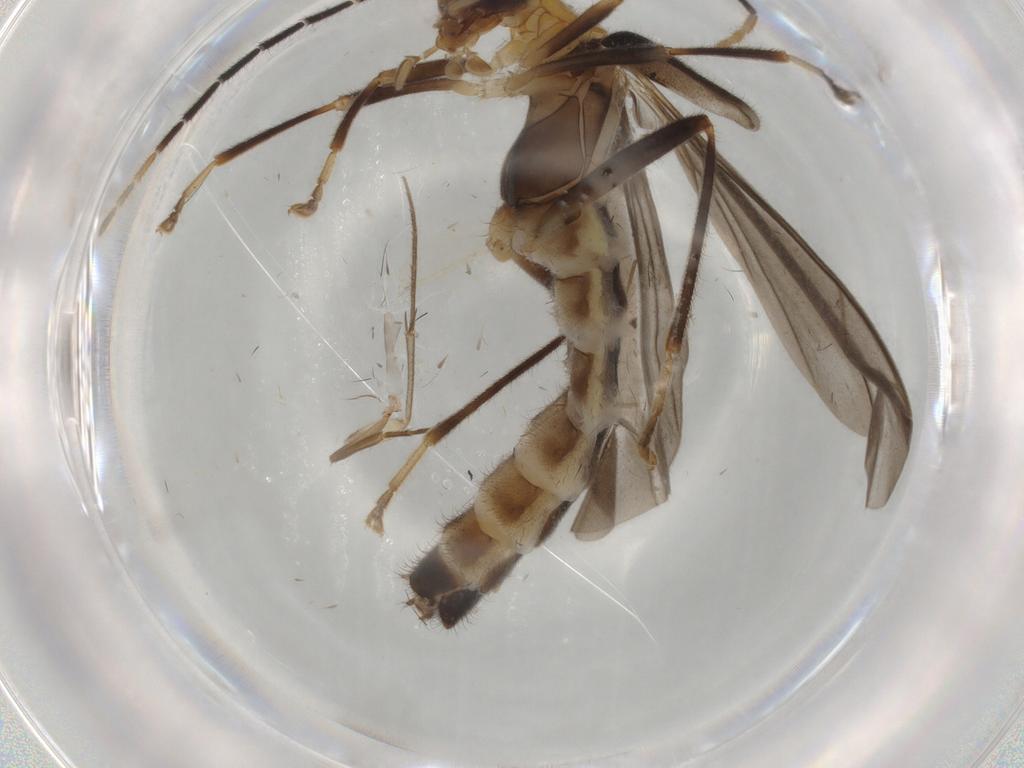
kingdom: Animalia
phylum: Arthropoda
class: Insecta
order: Coleoptera
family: Cantharidae
